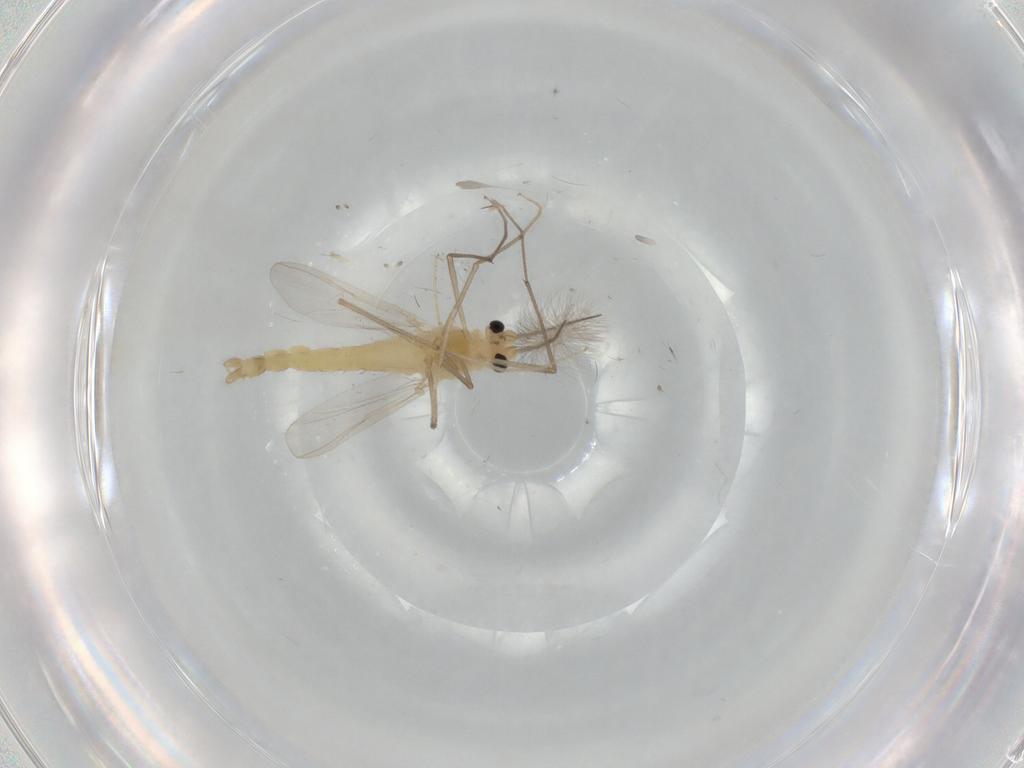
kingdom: Animalia
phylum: Arthropoda
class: Insecta
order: Diptera
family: Chironomidae
